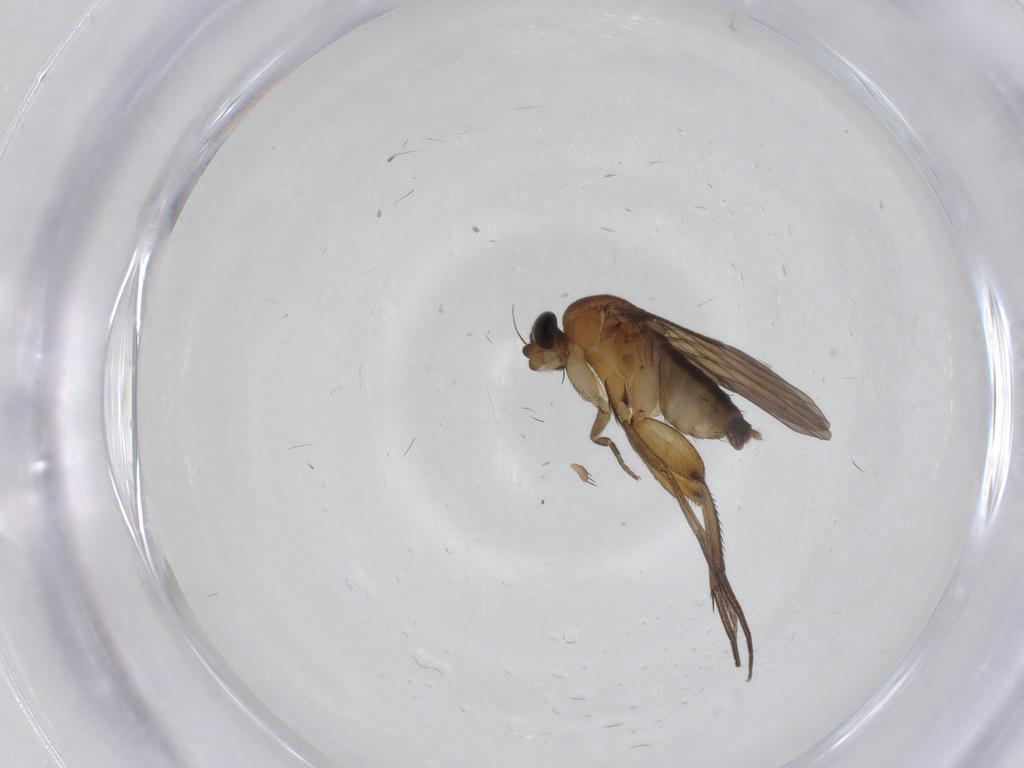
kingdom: Animalia
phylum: Arthropoda
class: Insecta
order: Diptera
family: Phoridae
